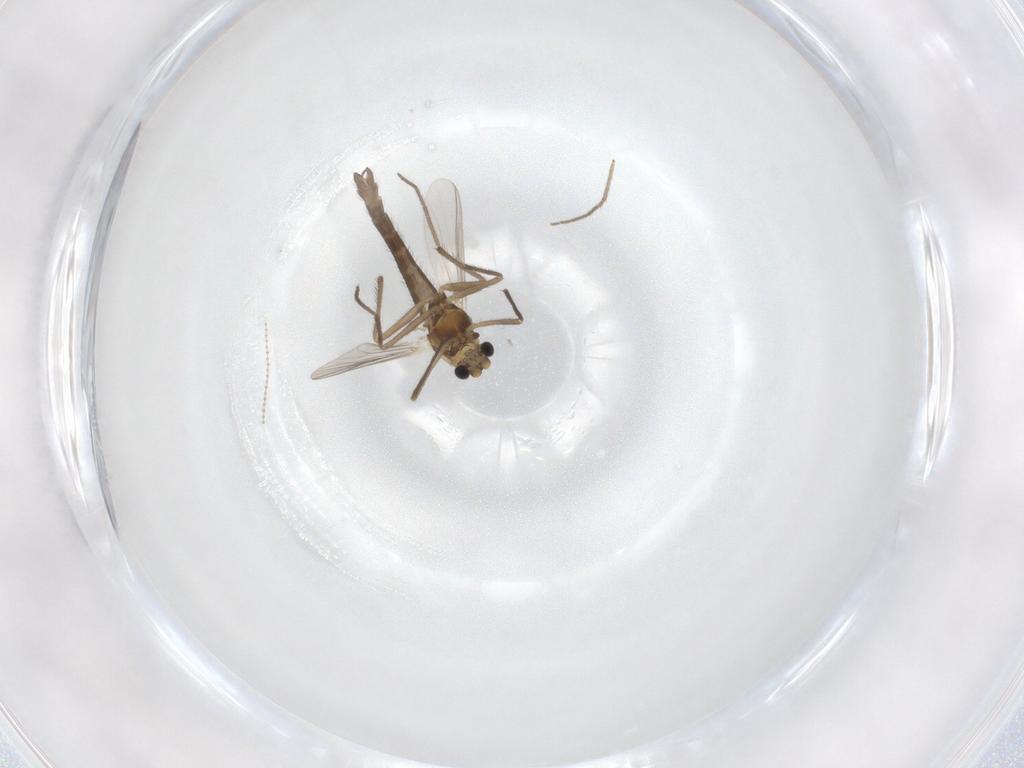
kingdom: Animalia
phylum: Arthropoda
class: Insecta
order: Diptera
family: Chironomidae
